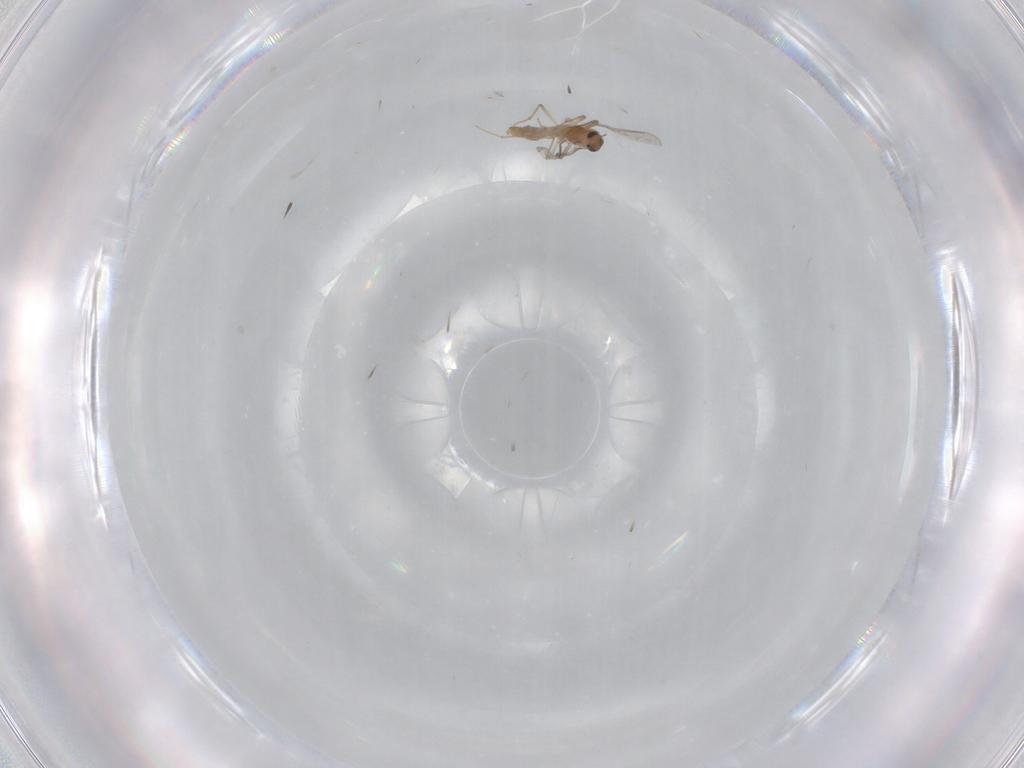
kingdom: Animalia
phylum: Arthropoda
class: Insecta
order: Diptera
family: Chironomidae
